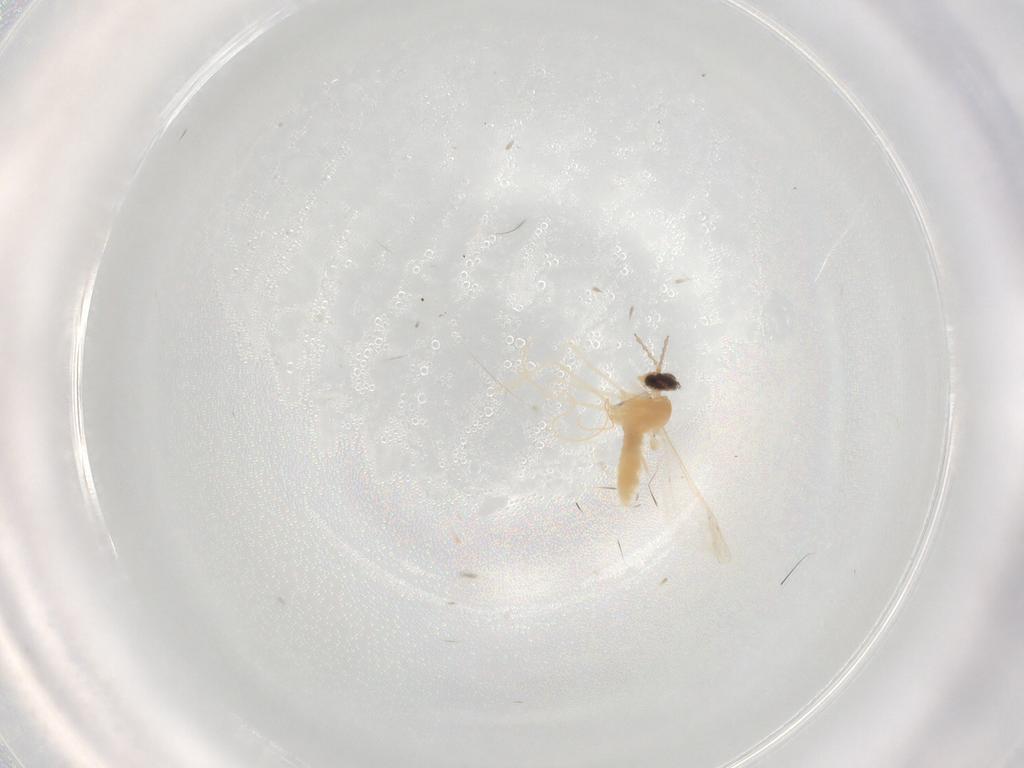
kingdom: Animalia
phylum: Arthropoda
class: Insecta
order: Diptera
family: Cecidomyiidae
